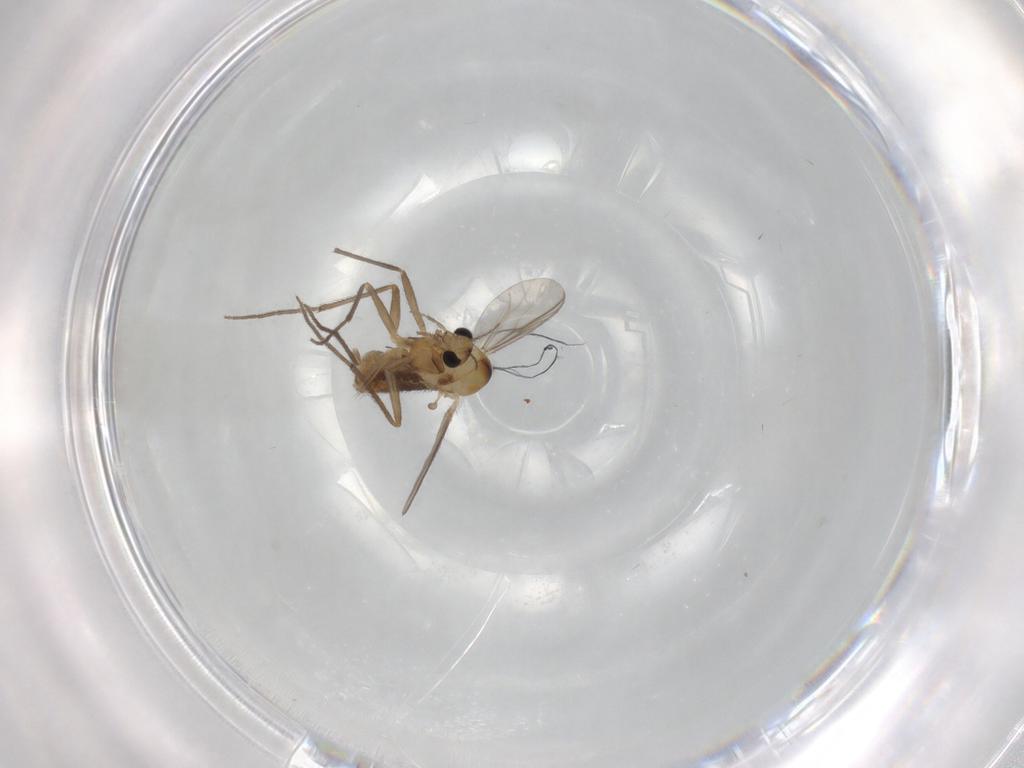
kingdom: Animalia
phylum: Arthropoda
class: Insecta
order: Diptera
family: Chironomidae
